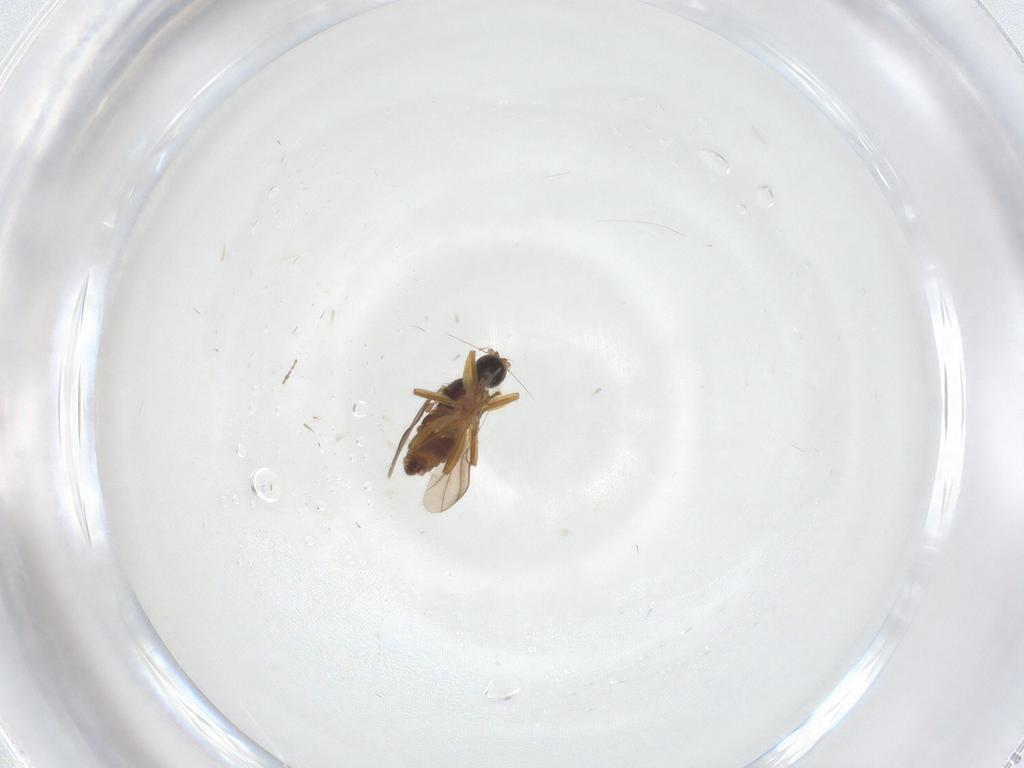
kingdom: Animalia
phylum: Arthropoda
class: Insecta
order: Diptera
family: Hybotidae
